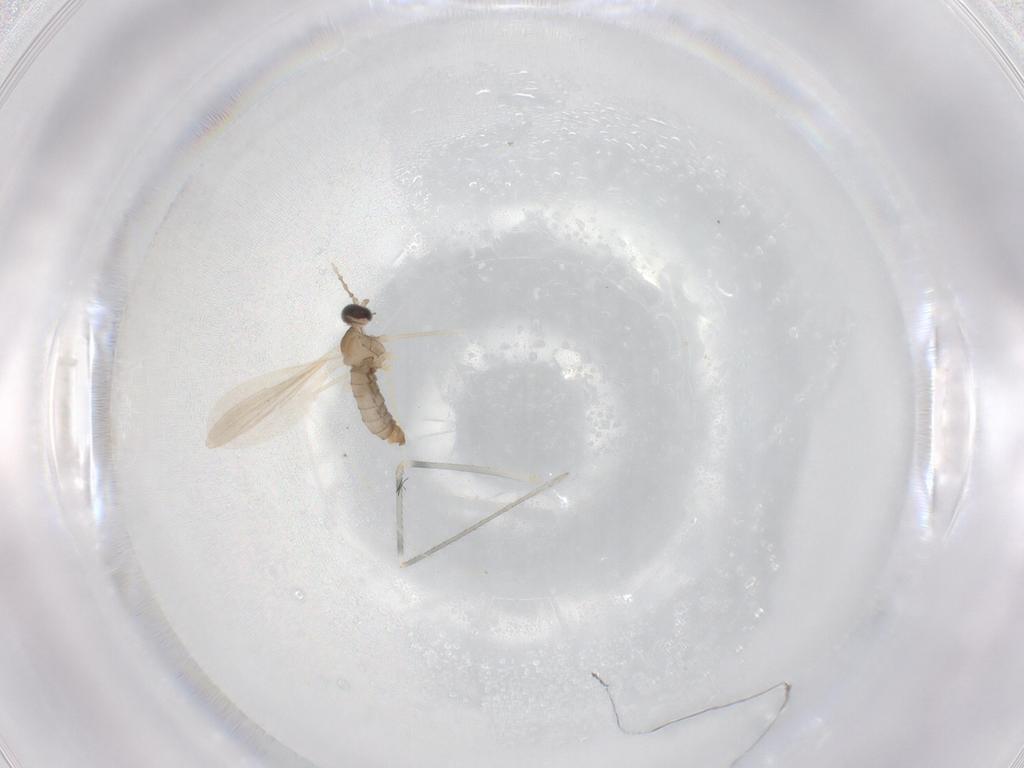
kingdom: Animalia
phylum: Arthropoda
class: Insecta
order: Diptera
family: Cecidomyiidae
